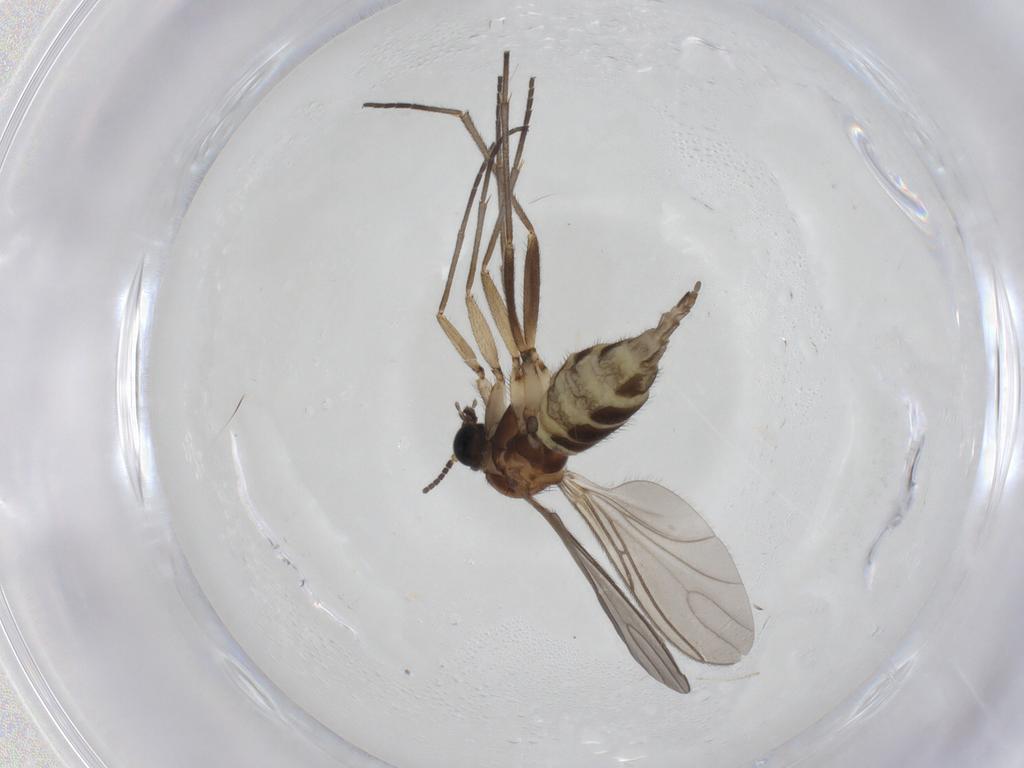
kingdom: Animalia
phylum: Arthropoda
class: Insecta
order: Diptera
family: Sciaridae
